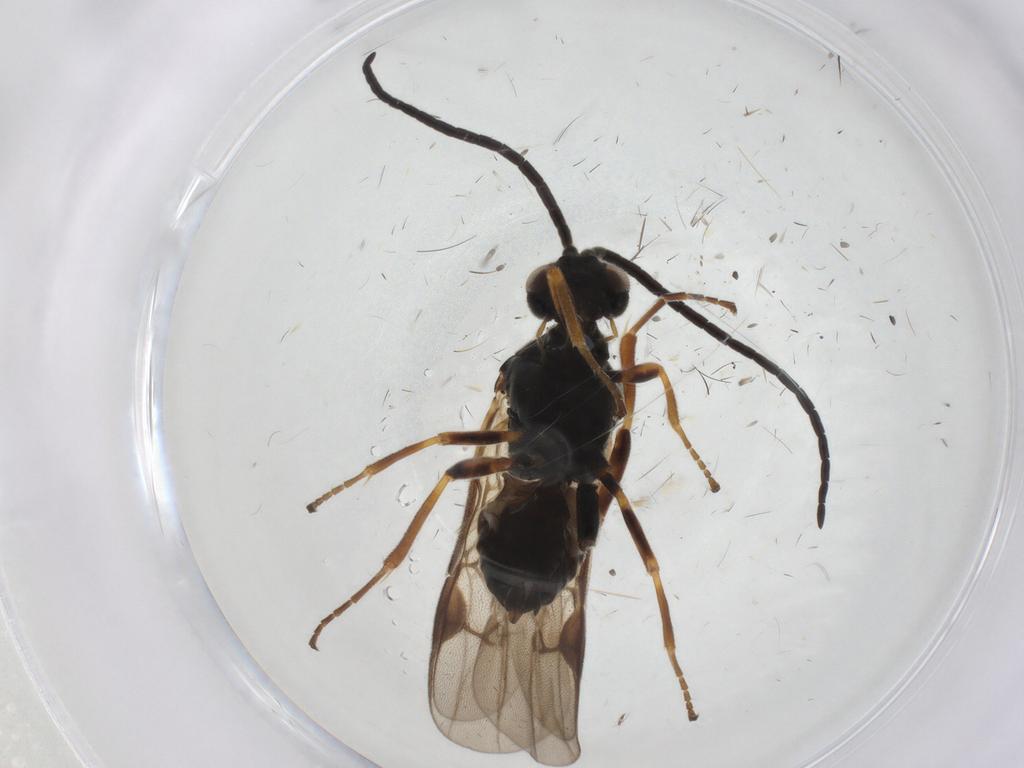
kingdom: Animalia
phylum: Arthropoda
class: Insecta
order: Hymenoptera
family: Braconidae
